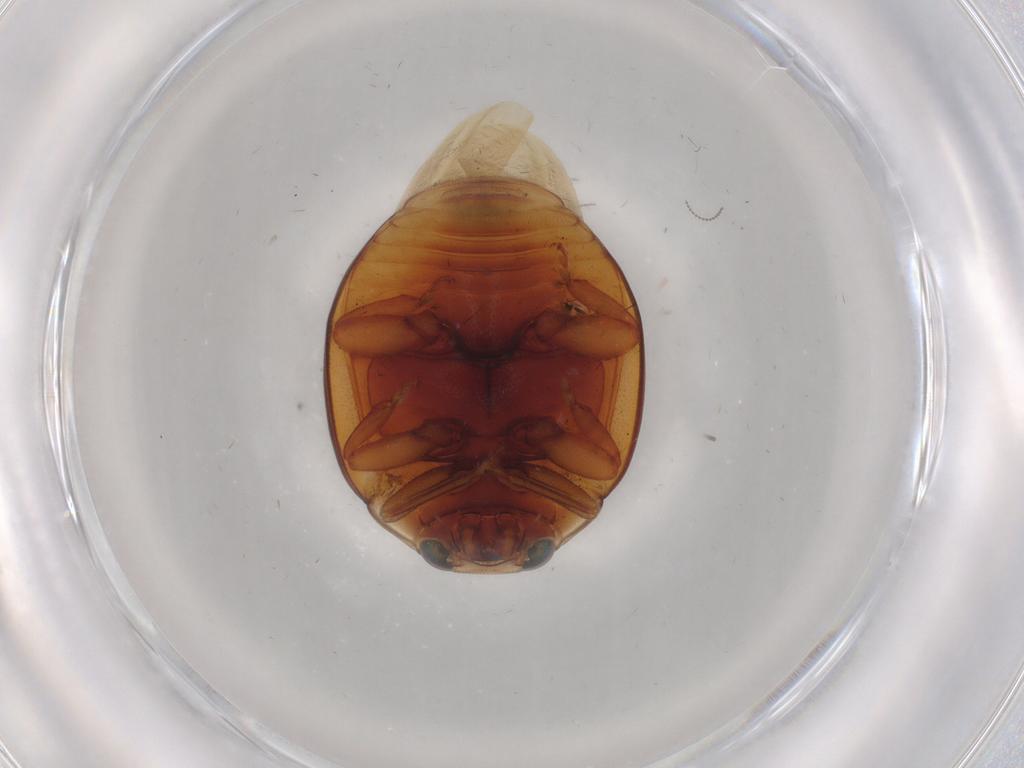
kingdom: Animalia
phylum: Arthropoda
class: Insecta
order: Coleoptera
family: Coccinellidae
